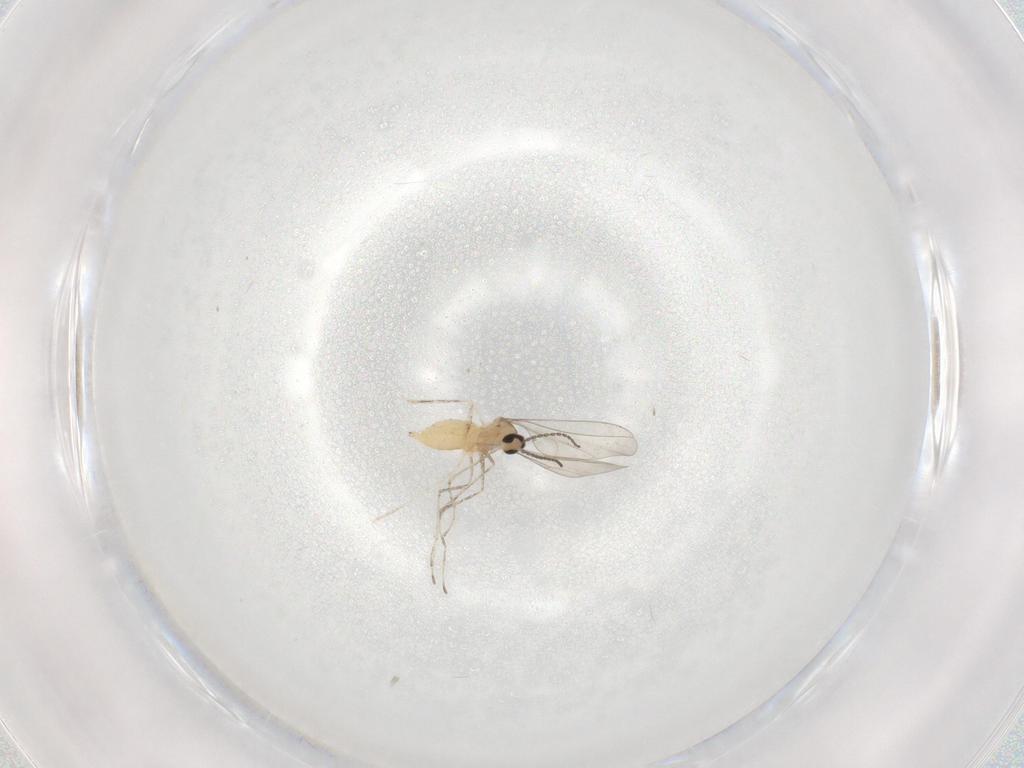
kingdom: Animalia
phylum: Arthropoda
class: Insecta
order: Diptera
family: Cecidomyiidae
